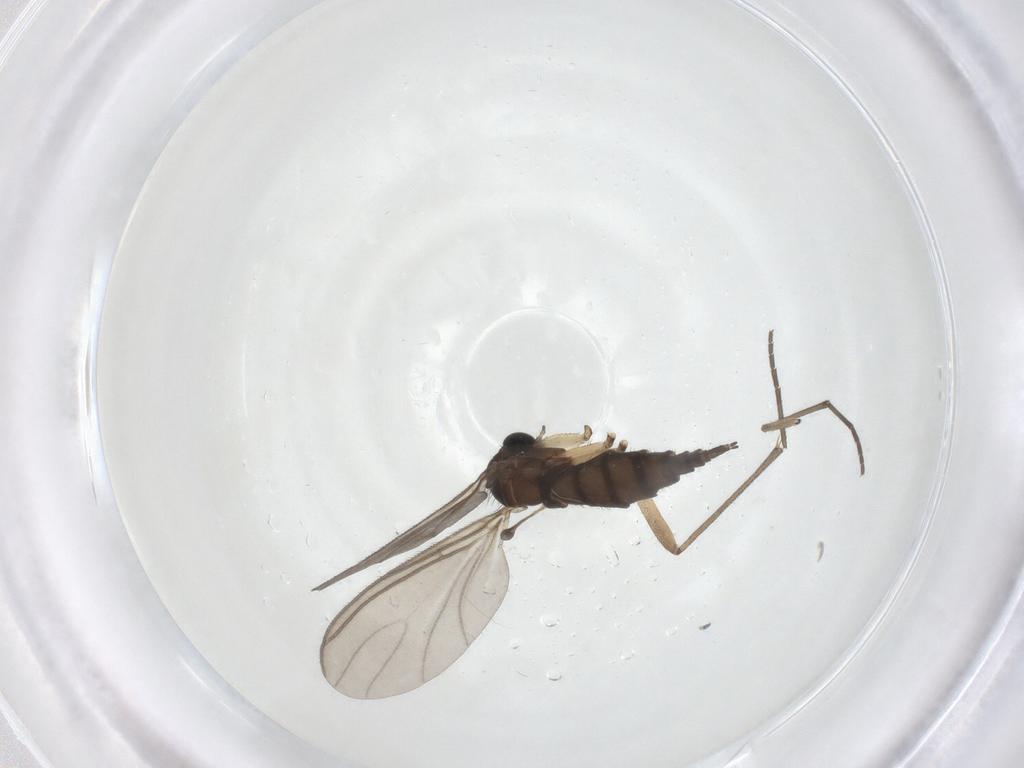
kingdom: Animalia
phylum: Arthropoda
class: Insecta
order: Diptera
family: Sciaridae
